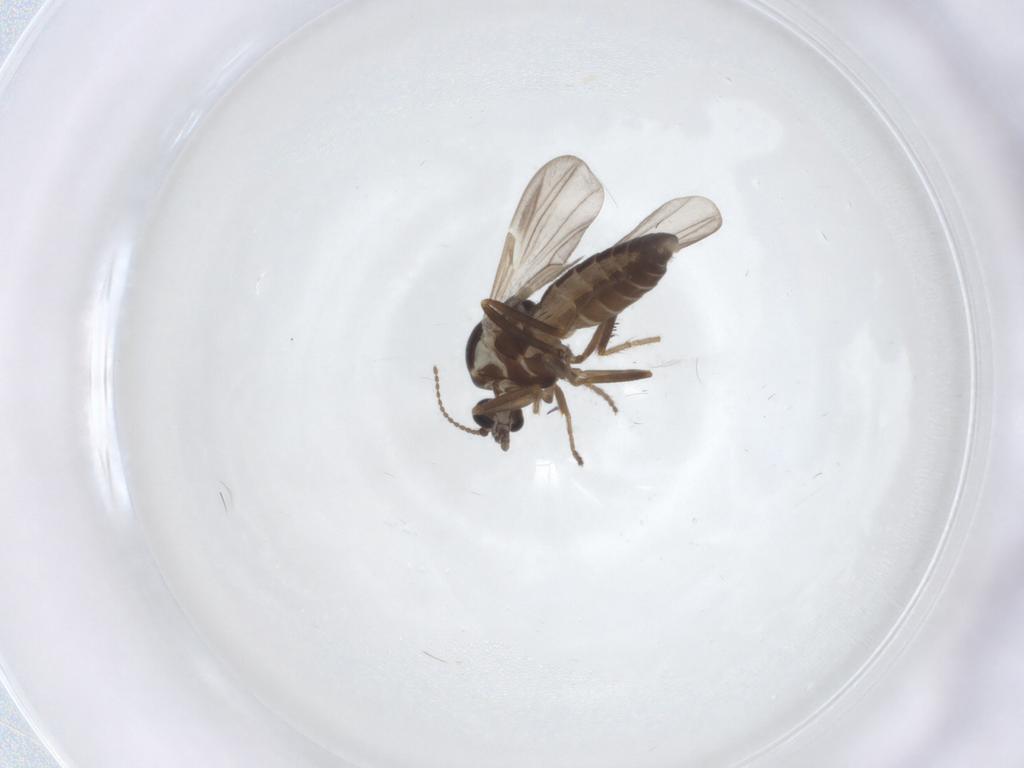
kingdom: Animalia
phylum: Arthropoda
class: Insecta
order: Diptera
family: Ceratopogonidae
